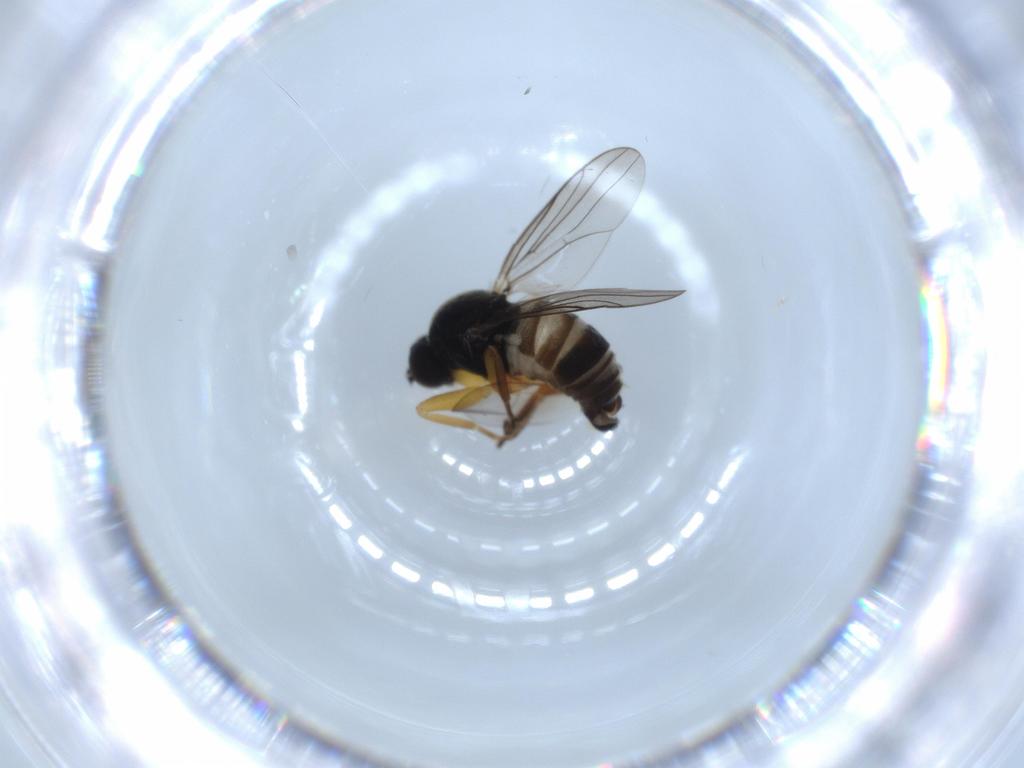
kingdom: Animalia
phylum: Arthropoda
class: Insecta
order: Diptera
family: Hybotidae
